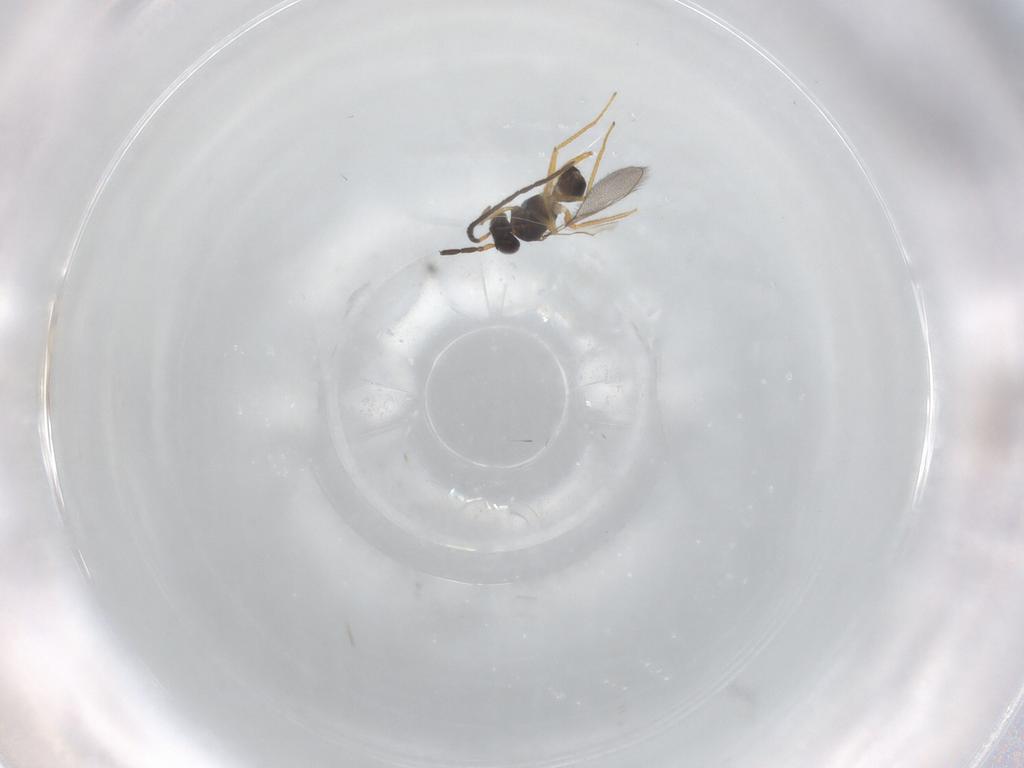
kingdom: Animalia
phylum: Arthropoda
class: Insecta
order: Hymenoptera
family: Mymaridae
